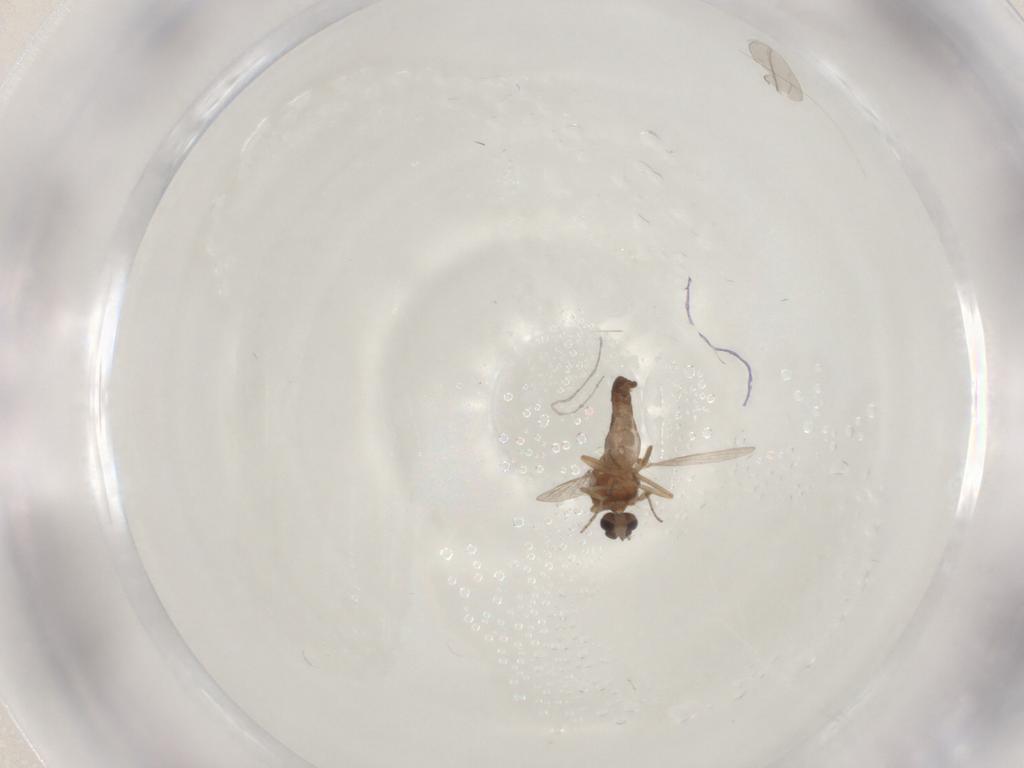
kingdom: Animalia
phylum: Arthropoda
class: Insecta
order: Diptera
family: Ceratopogonidae
